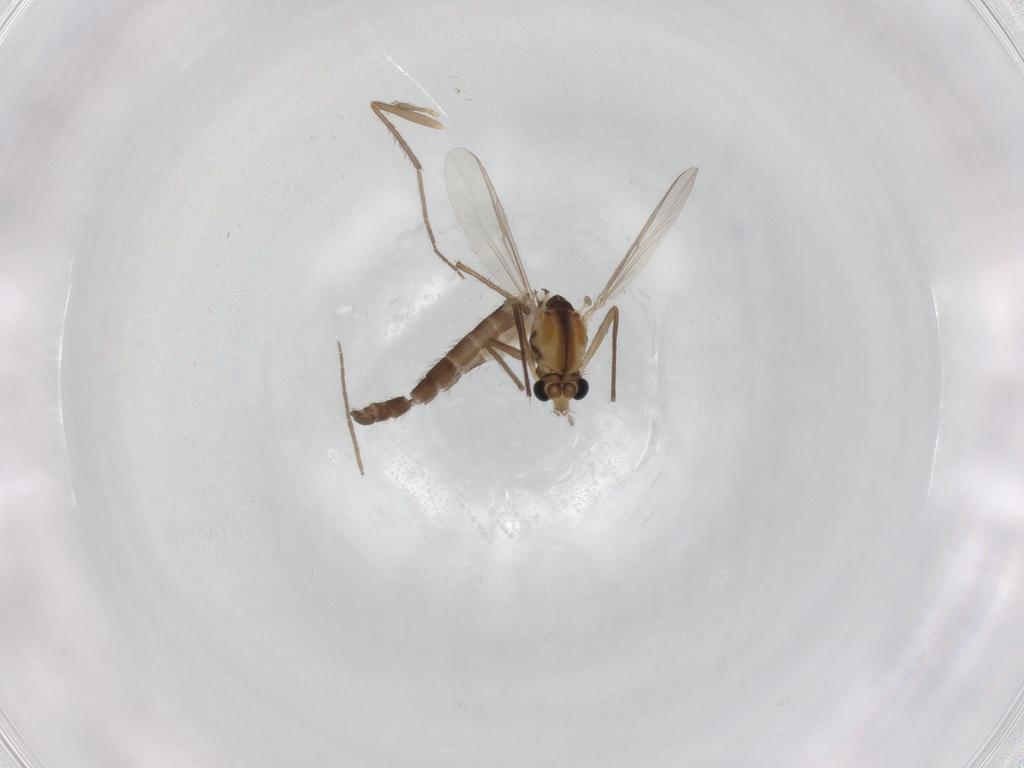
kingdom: Animalia
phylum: Arthropoda
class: Insecta
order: Diptera
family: Chironomidae
